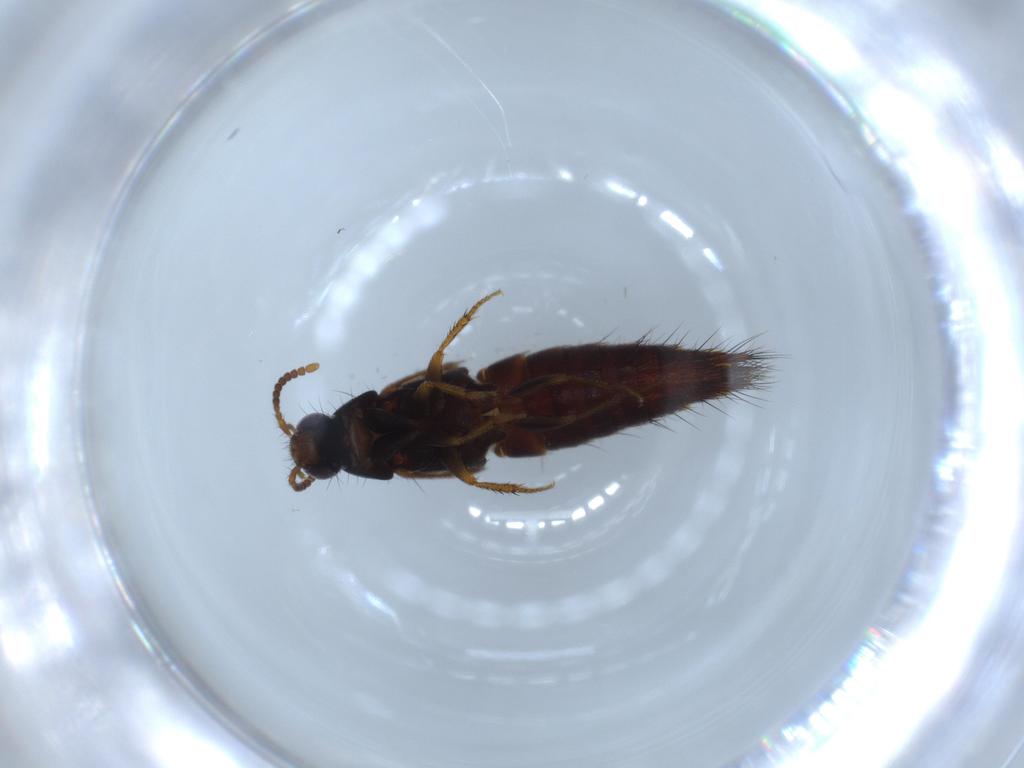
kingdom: Animalia
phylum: Arthropoda
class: Insecta
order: Coleoptera
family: Staphylinidae
